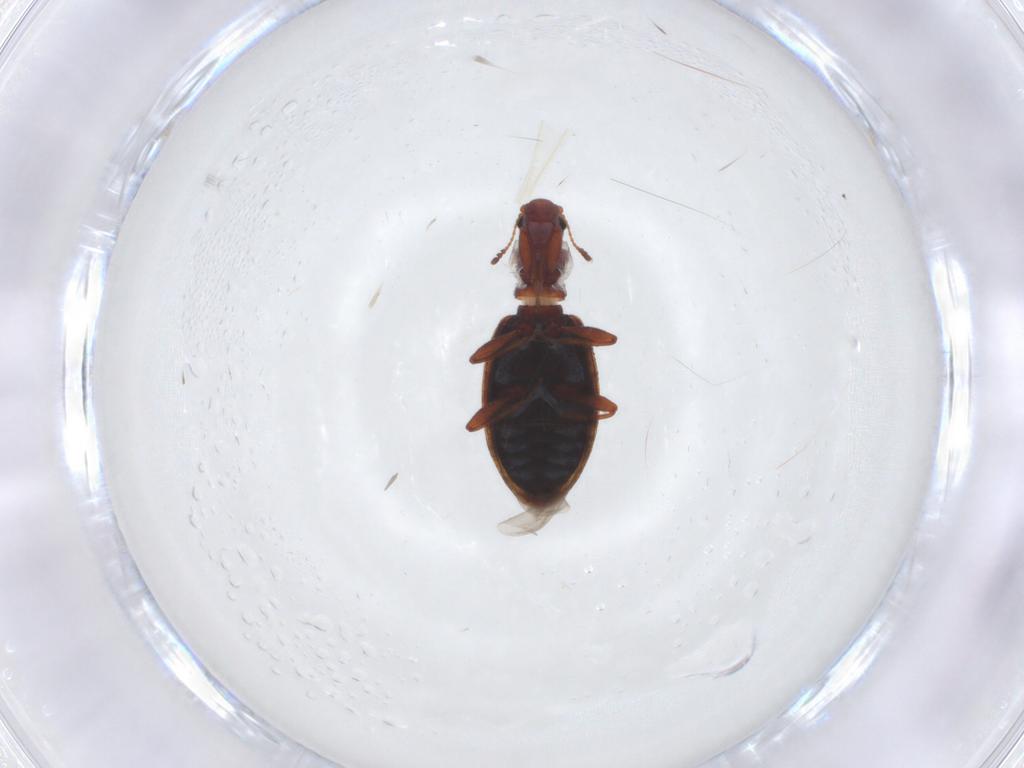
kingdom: Animalia
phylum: Arthropoda
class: Insecta
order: Coleoptera
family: Latridiidae
